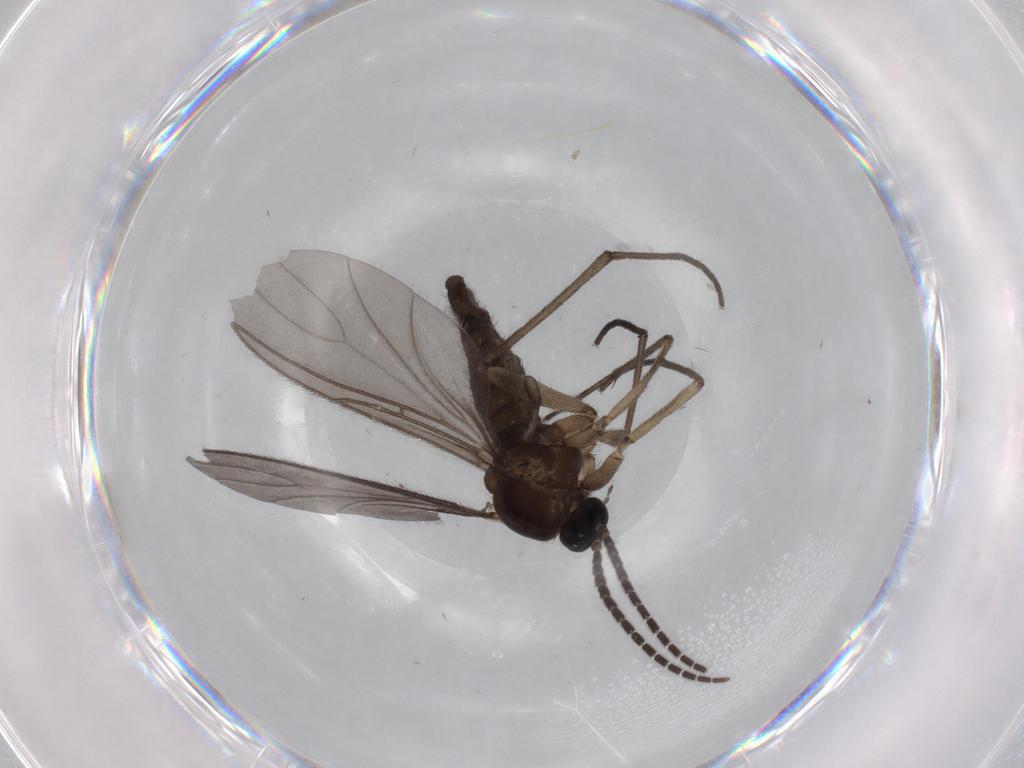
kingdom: Animalia
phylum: Arthropoda
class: Insecta
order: Diptera
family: Sciaridae
